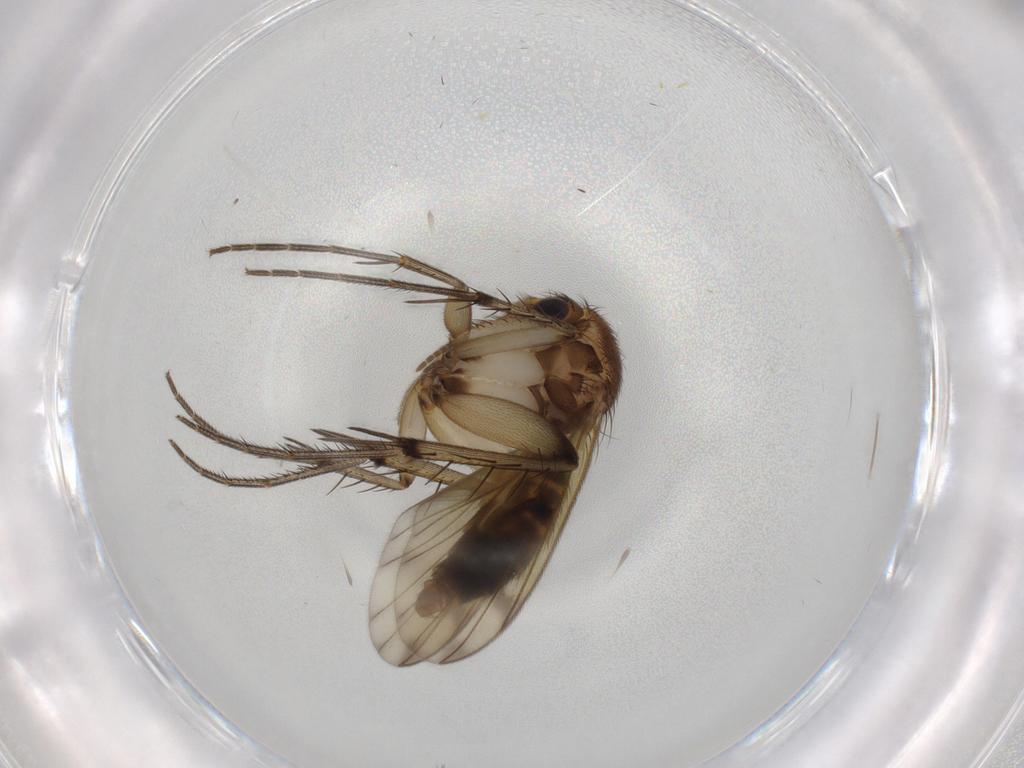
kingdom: Animalia
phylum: Arthropoda
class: Insecta
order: Diptera
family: Mycetophilidae
